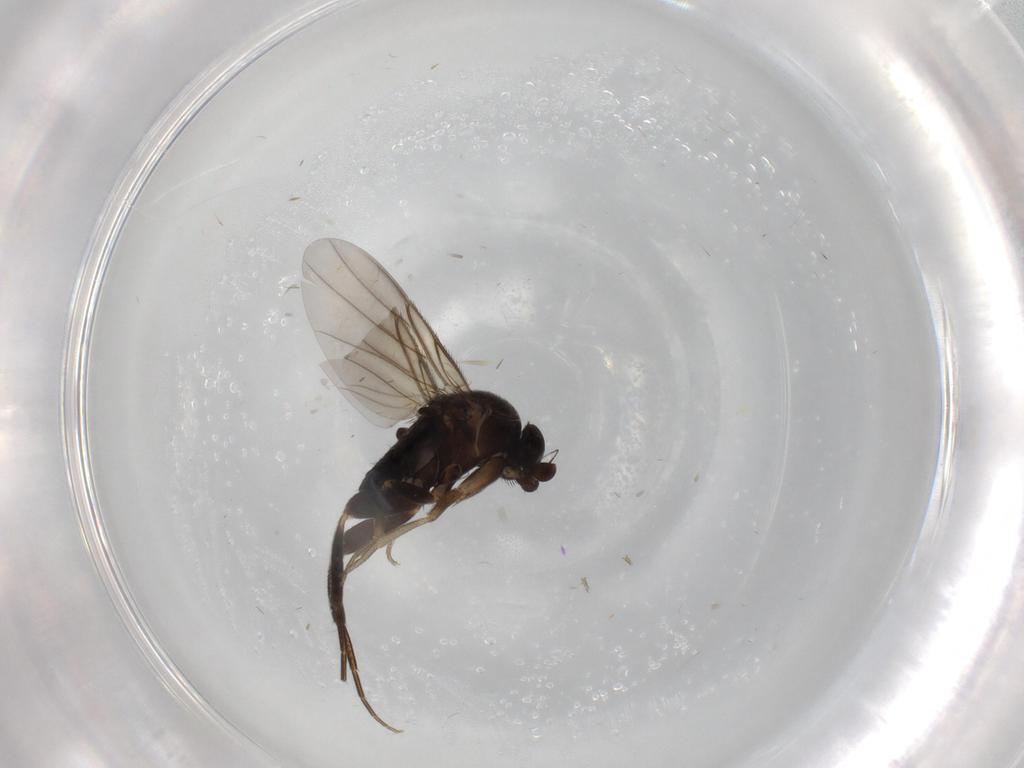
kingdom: Animalia
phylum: Arthropoda
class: Insecta
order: Diptera
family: Phoridae
